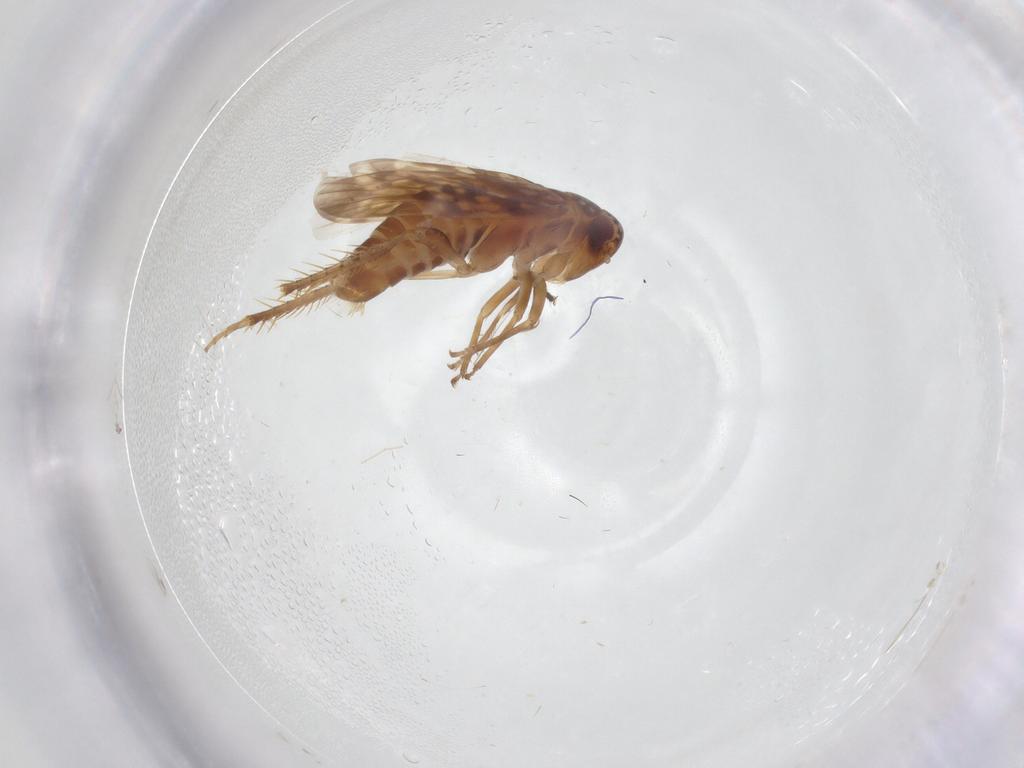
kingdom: Animalia
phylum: Arthropoda
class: Insecta
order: Hemiptera
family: Cicadellidae
